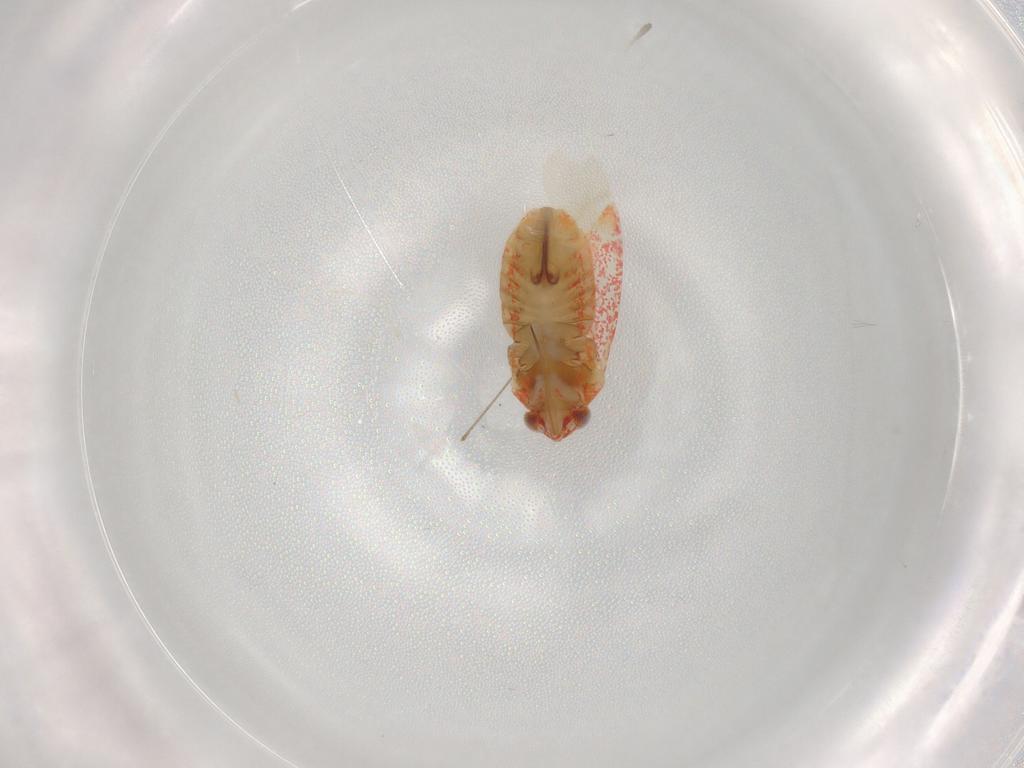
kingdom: Animalia
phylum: Arthropoda
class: Insecta
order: Hemiptera
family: Miridae
